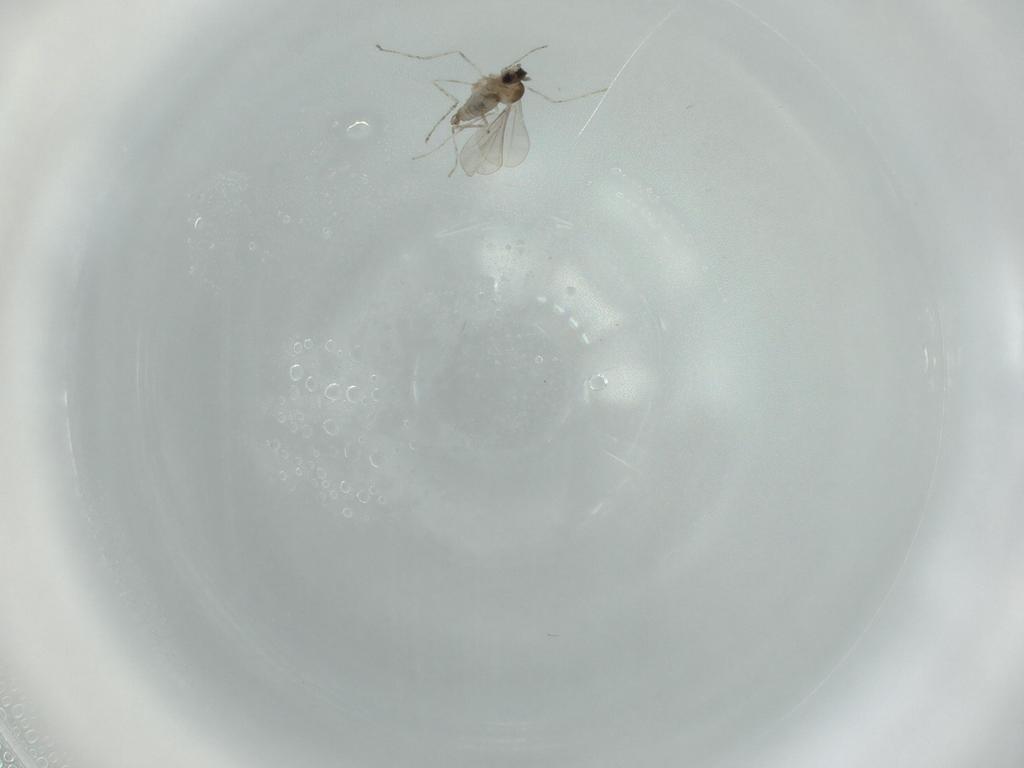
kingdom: Animalia
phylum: Arthropoda
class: Insecta
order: Diptera
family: Cecidomyiidae
